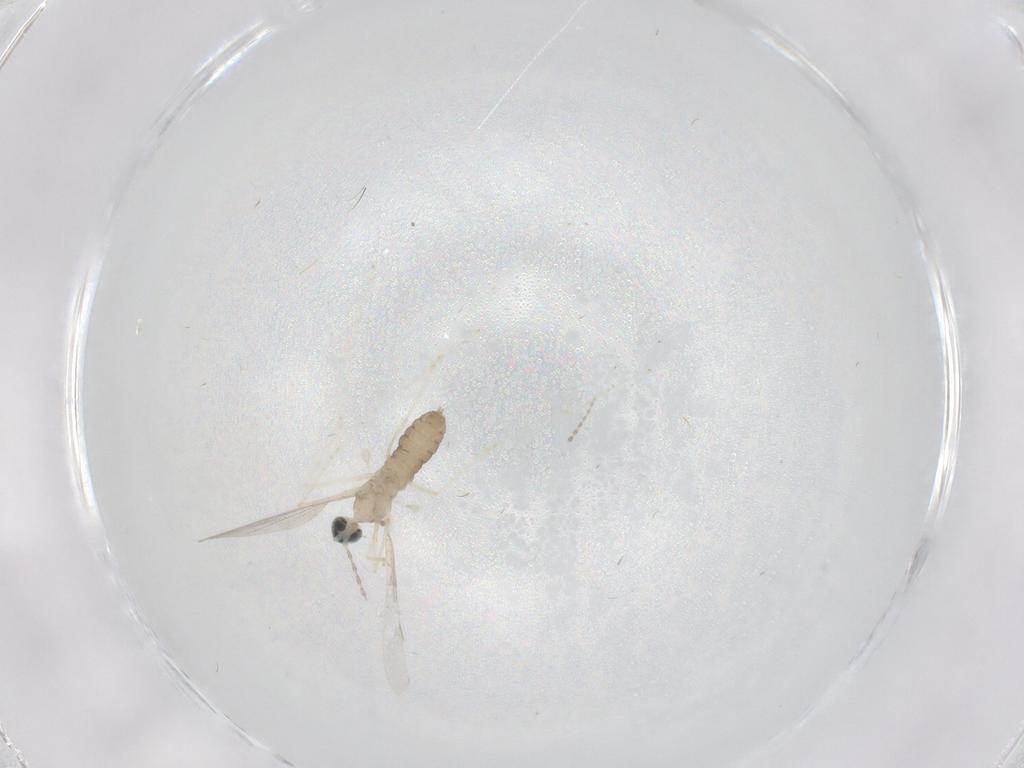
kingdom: Animalia
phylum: Arthropoda
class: Insecta
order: Diptera
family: Cecidomyiidae
